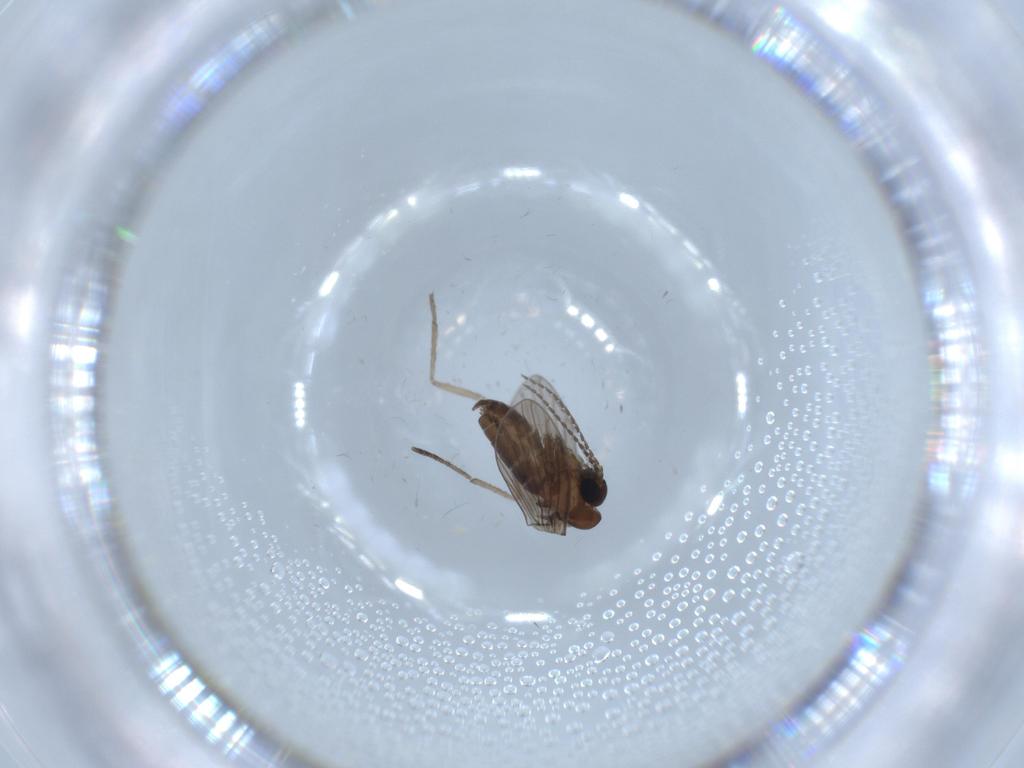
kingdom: Animalia
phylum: Arthropoda
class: Insecta
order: Diptera
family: Psychodidae
